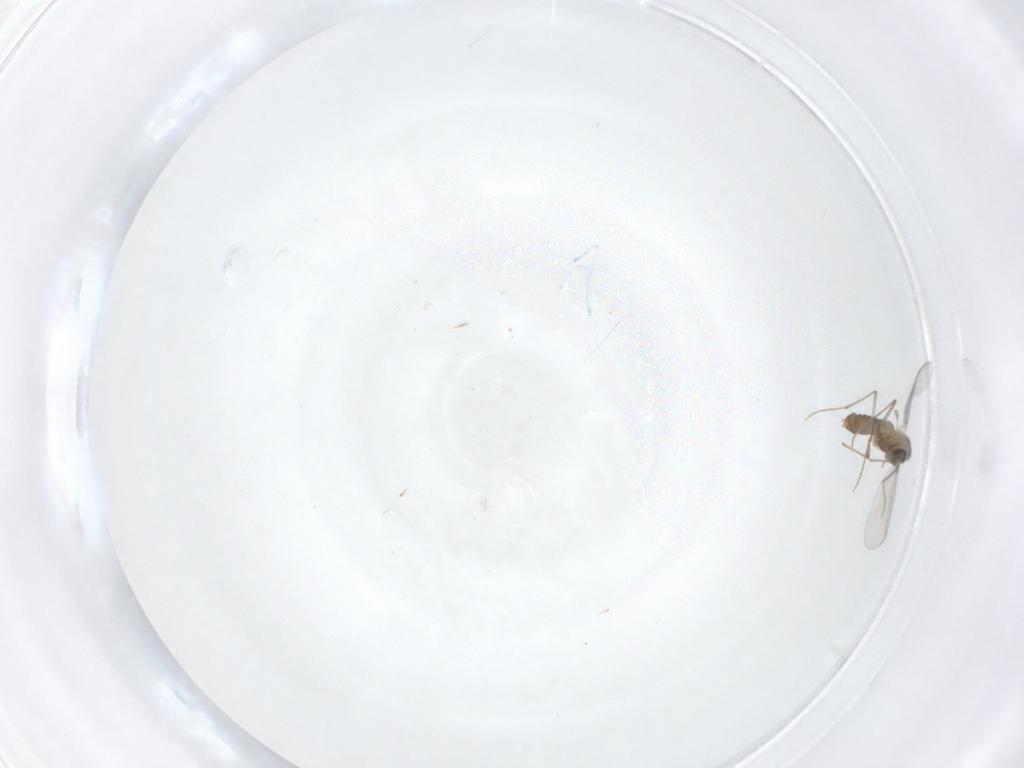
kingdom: Animalia
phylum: Arthropoda
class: Insecta
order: Diptera
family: Chironomidae
